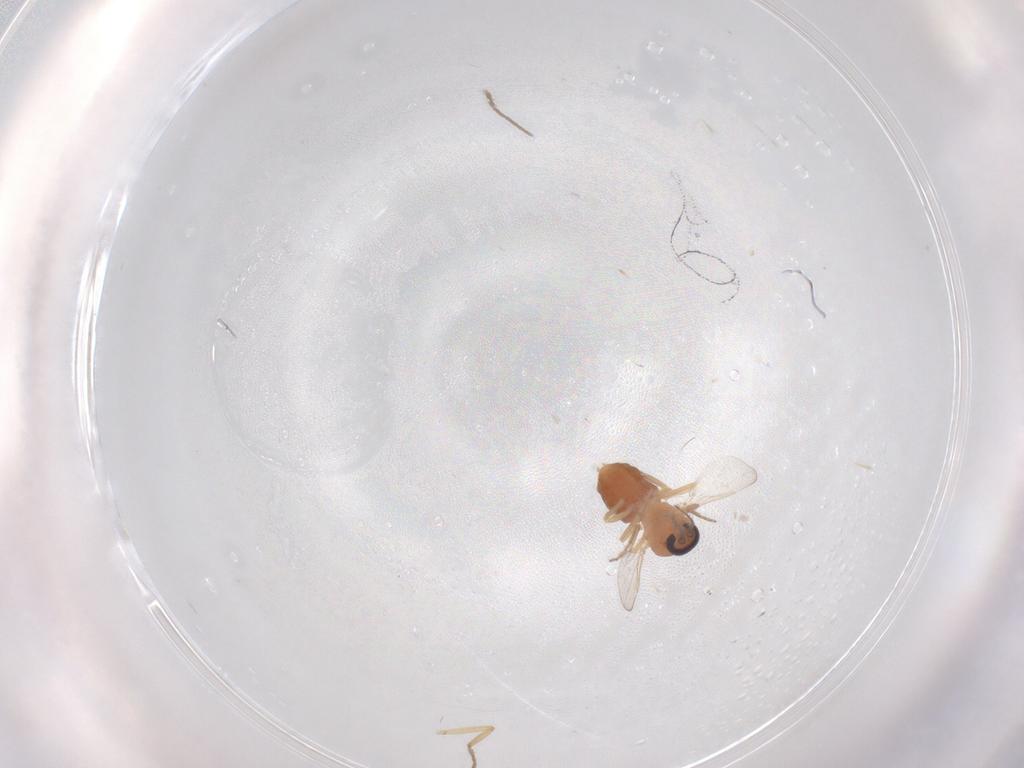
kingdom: Animalia
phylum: Arthropoda
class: Insecta
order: Diptera
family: Ceratopogonidae
